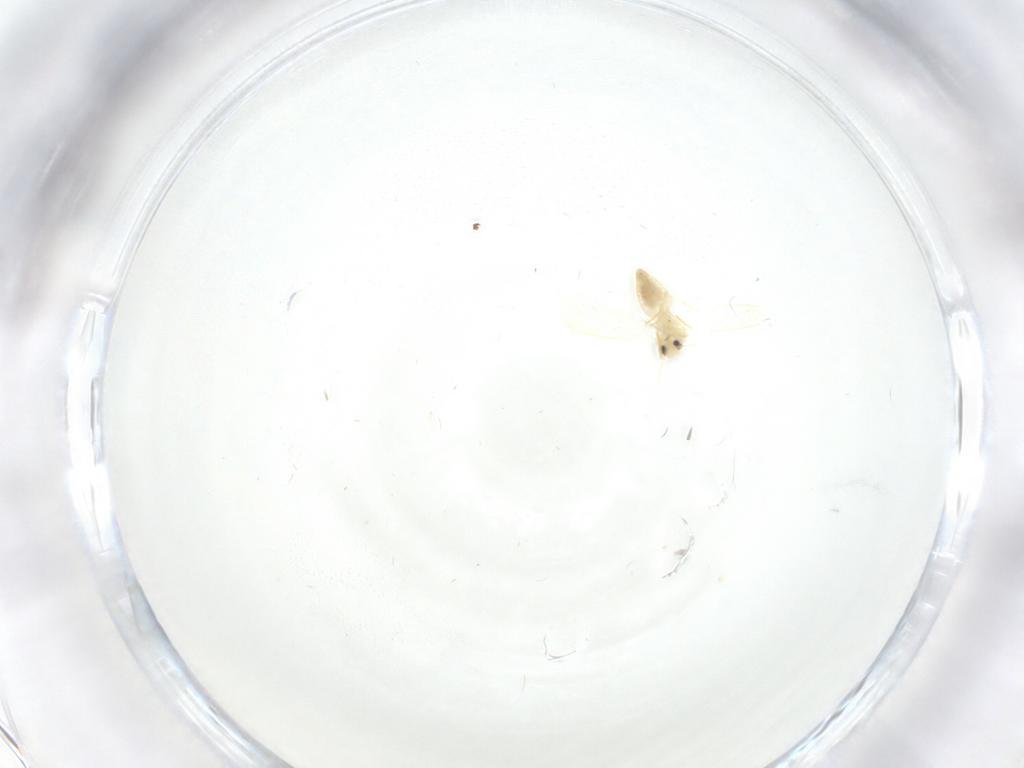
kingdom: Animalia
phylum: Arthropoda
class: Insecta
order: Hemiptera
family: Aleyrodidae
